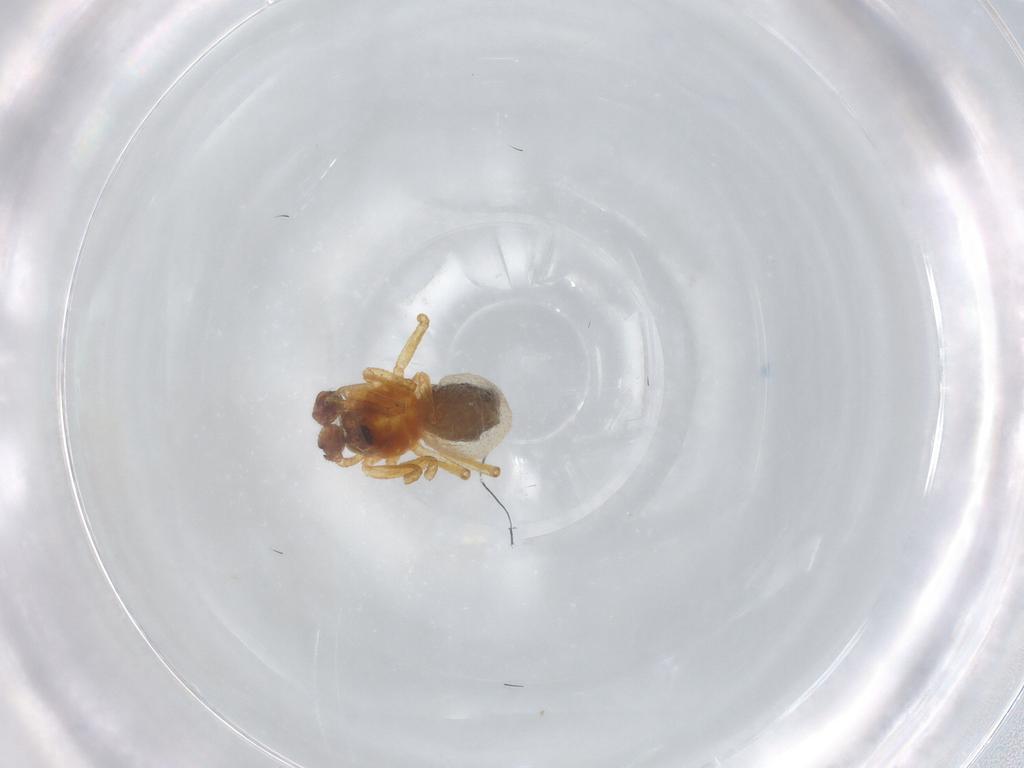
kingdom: Animalia
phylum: Arthropoda
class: Arachnida
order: Araneae
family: Linyphiidae
